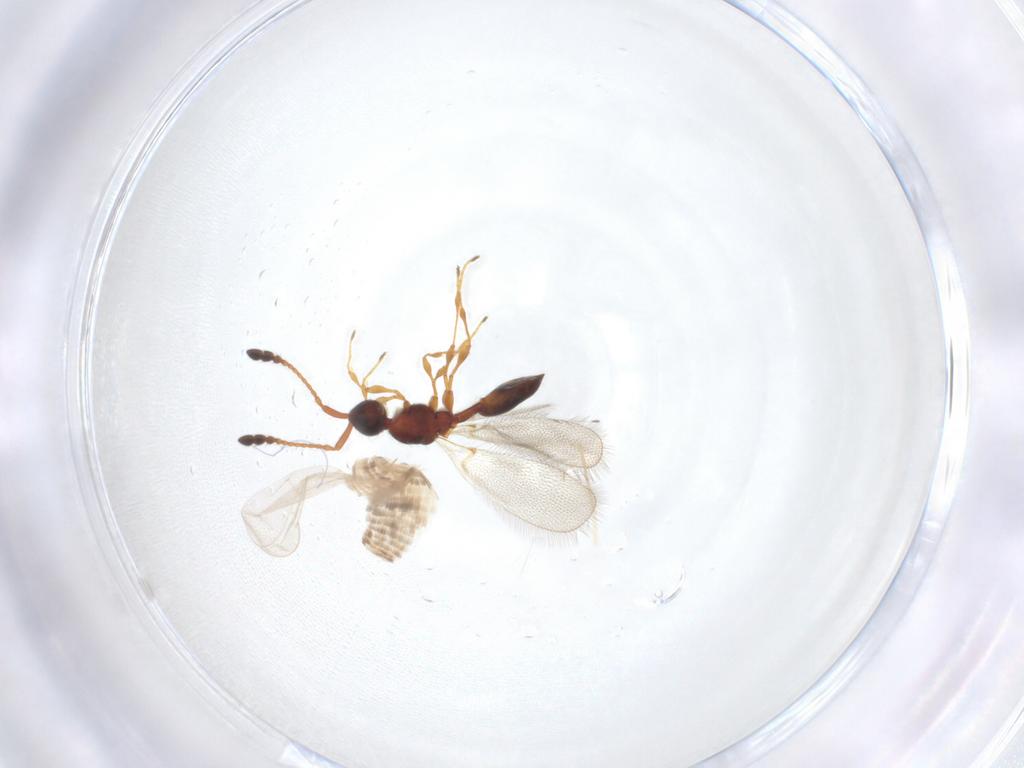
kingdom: Animalia
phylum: Arthropoda
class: Insecta
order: Hymenoptera
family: Diapriidae
